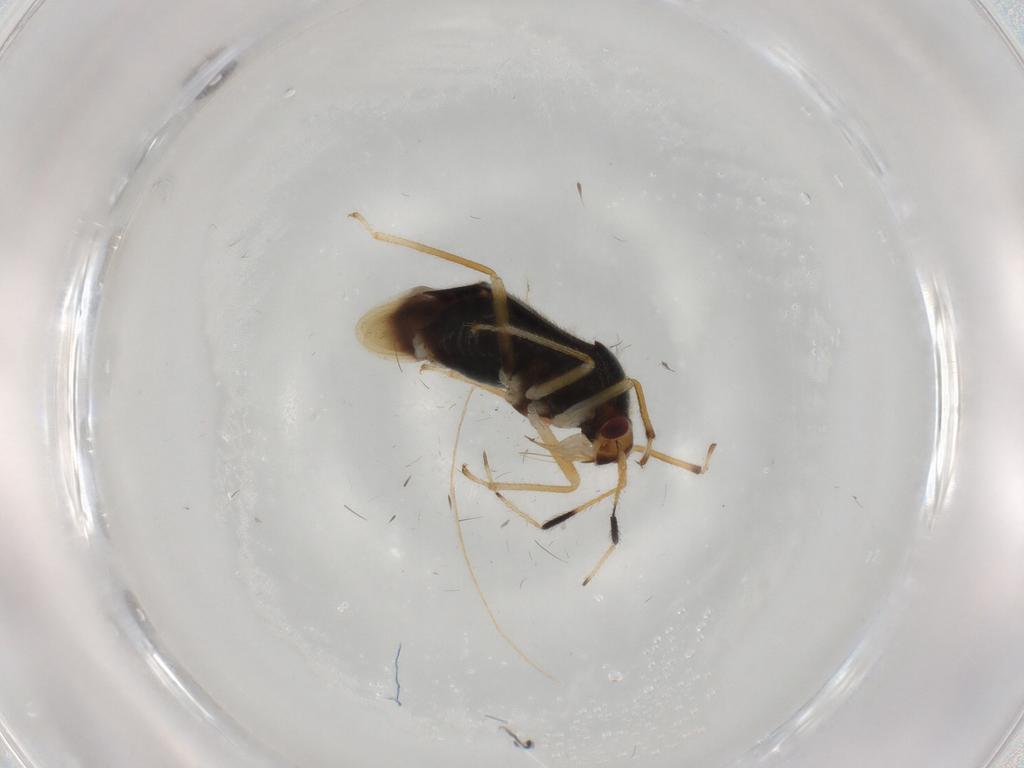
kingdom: Animalia
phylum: Arthropoda
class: Insecta
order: Hemiptera
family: Miridae
